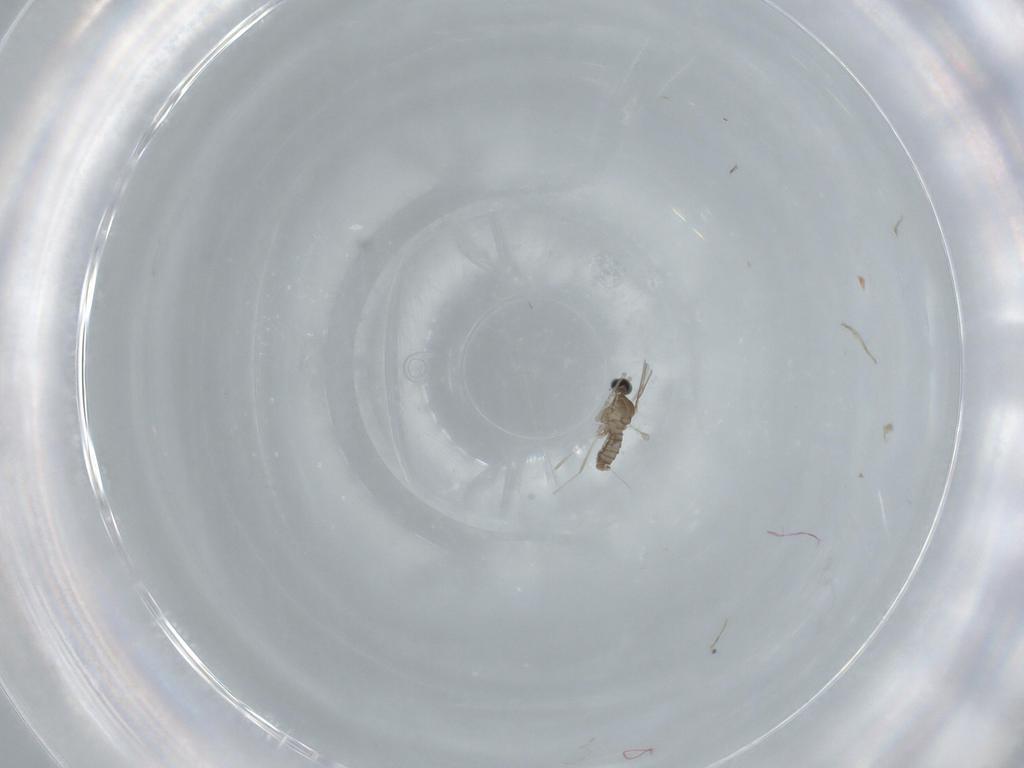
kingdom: Animalia
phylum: Arthropoda
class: Insecta
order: Diptera
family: Cecidomyiidae
